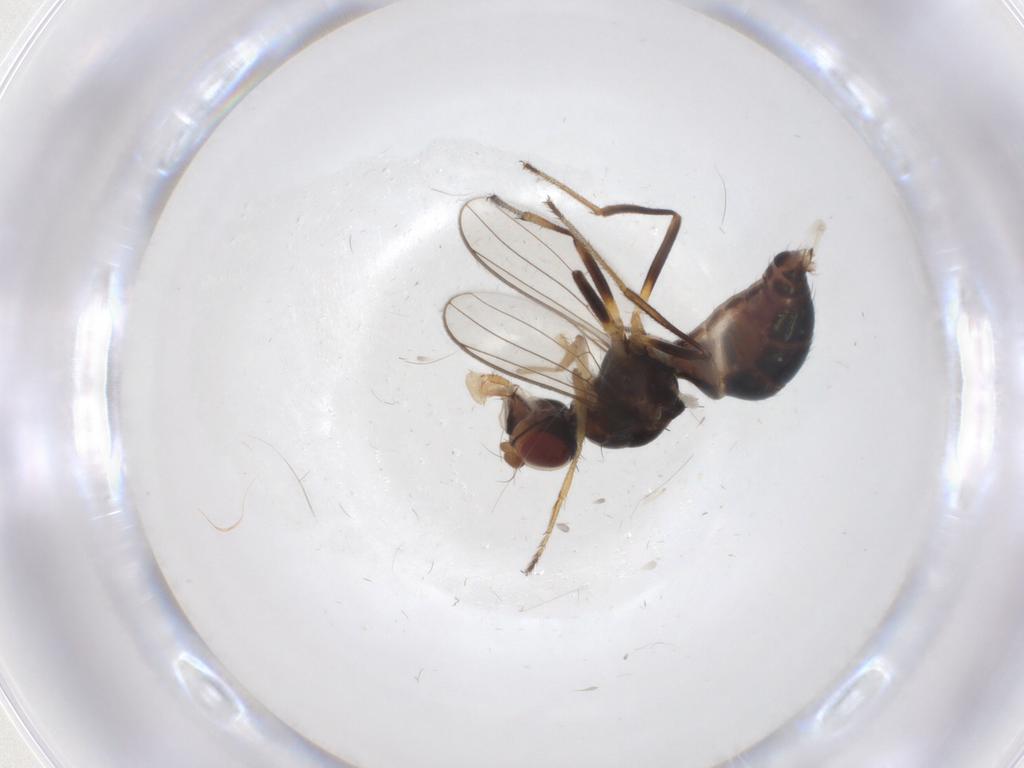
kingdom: Animalia
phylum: Arthropoda
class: Insecta
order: Diptera
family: Sepsidae
